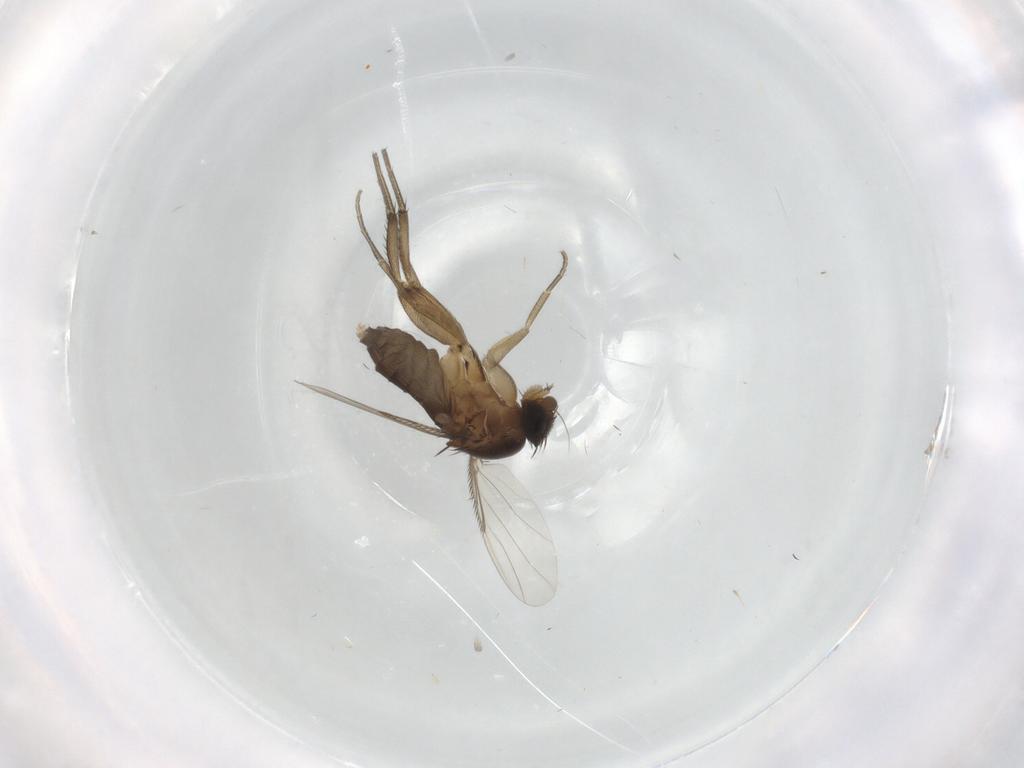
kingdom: Animalia
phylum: Arthropoda
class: Insecta
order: Diptera
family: Phoridae
